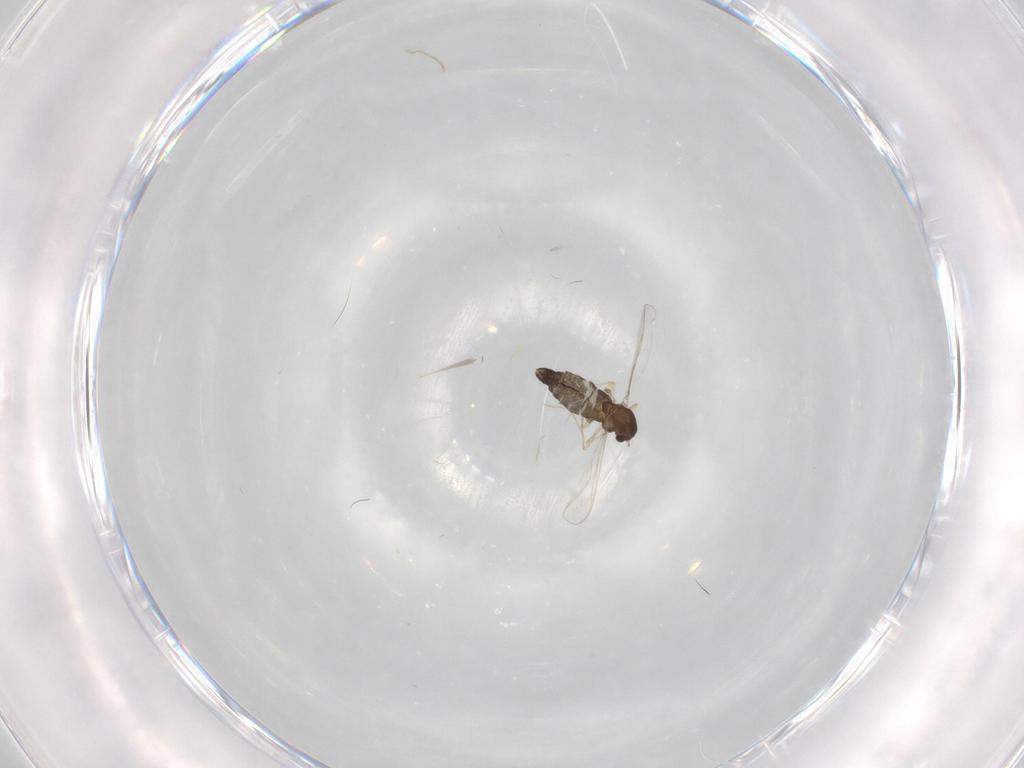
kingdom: Animalia
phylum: Arthropoda
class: Insecta
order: Diptera
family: Chironomidae
